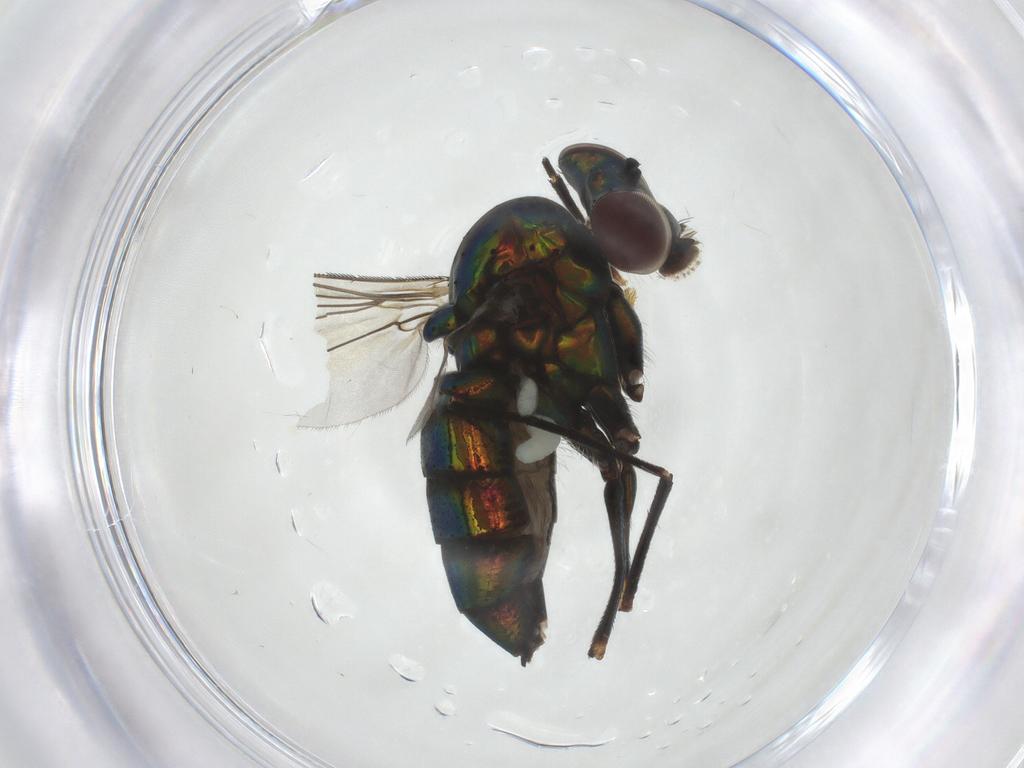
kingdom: Animalia
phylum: Arthropoda
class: Insecta
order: Diptera
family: Dolichopodidae
